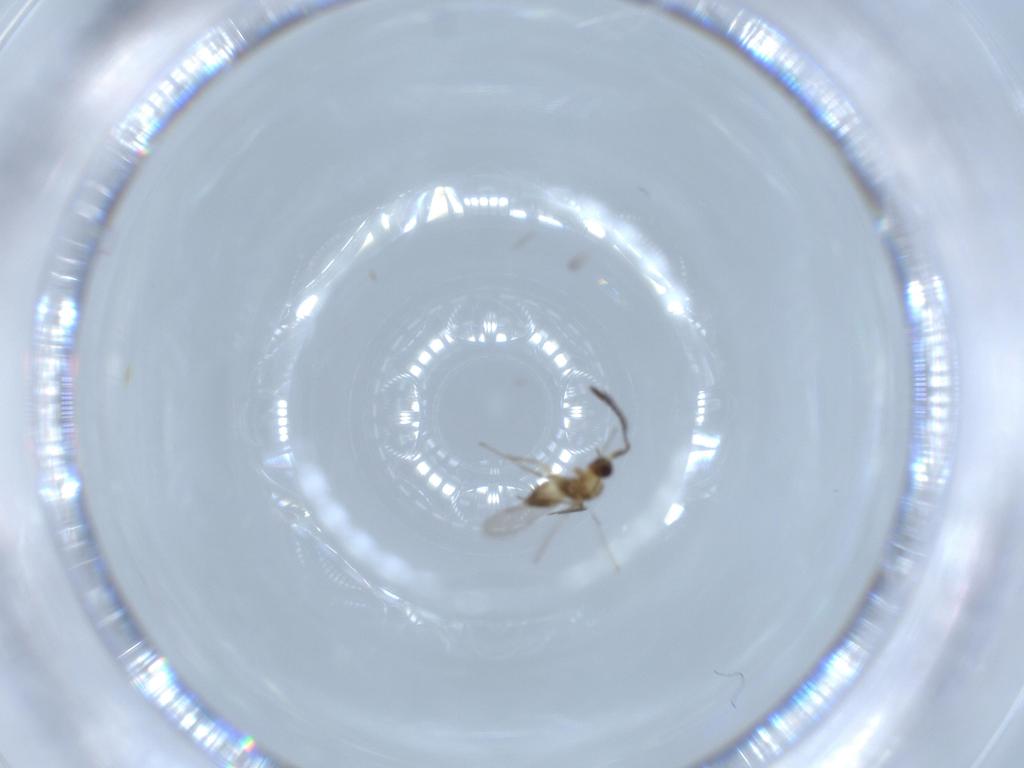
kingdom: Animalia
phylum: Arthropoda
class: Insecta
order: Hymenoptera
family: Mymaridae
